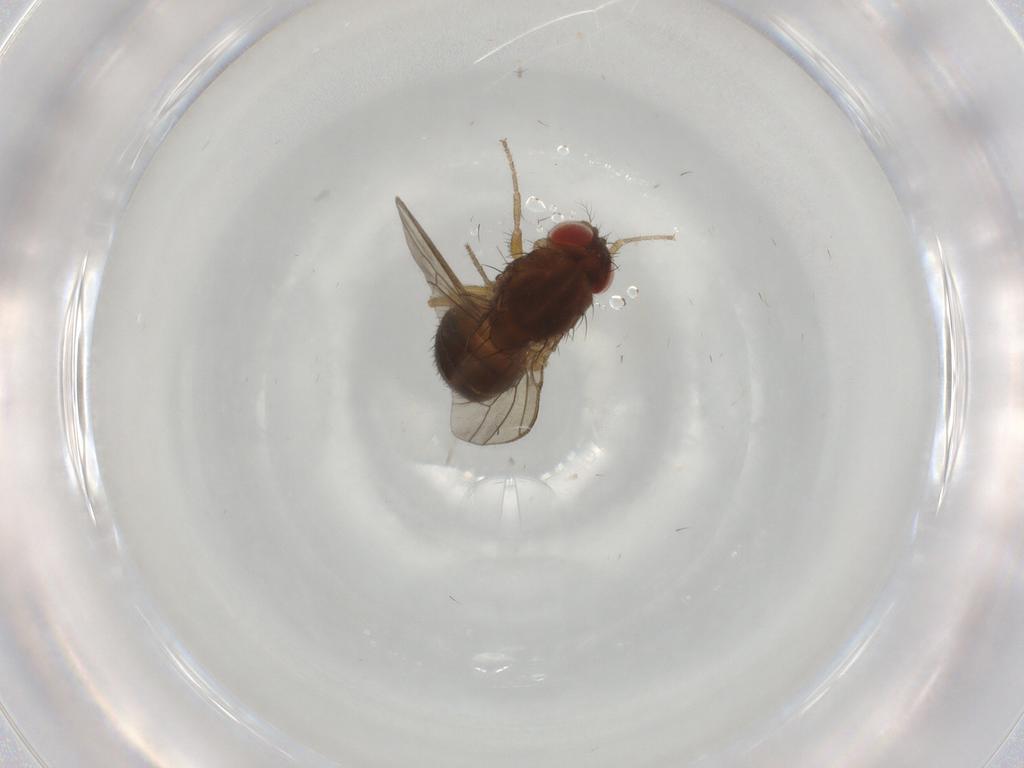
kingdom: Animalia
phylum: Arthropoda
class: Insecta
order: Diptera
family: Drosophilidae
